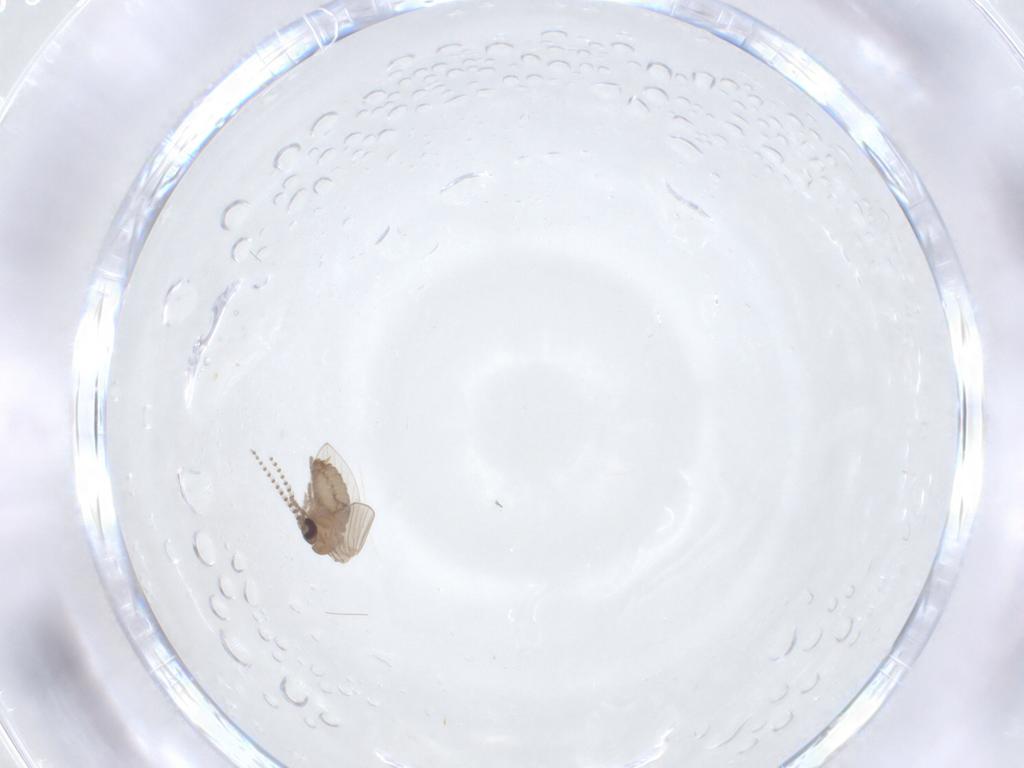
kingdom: Animalia
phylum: Arthropoda
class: Insecta
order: Diptera
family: Psychodidae
